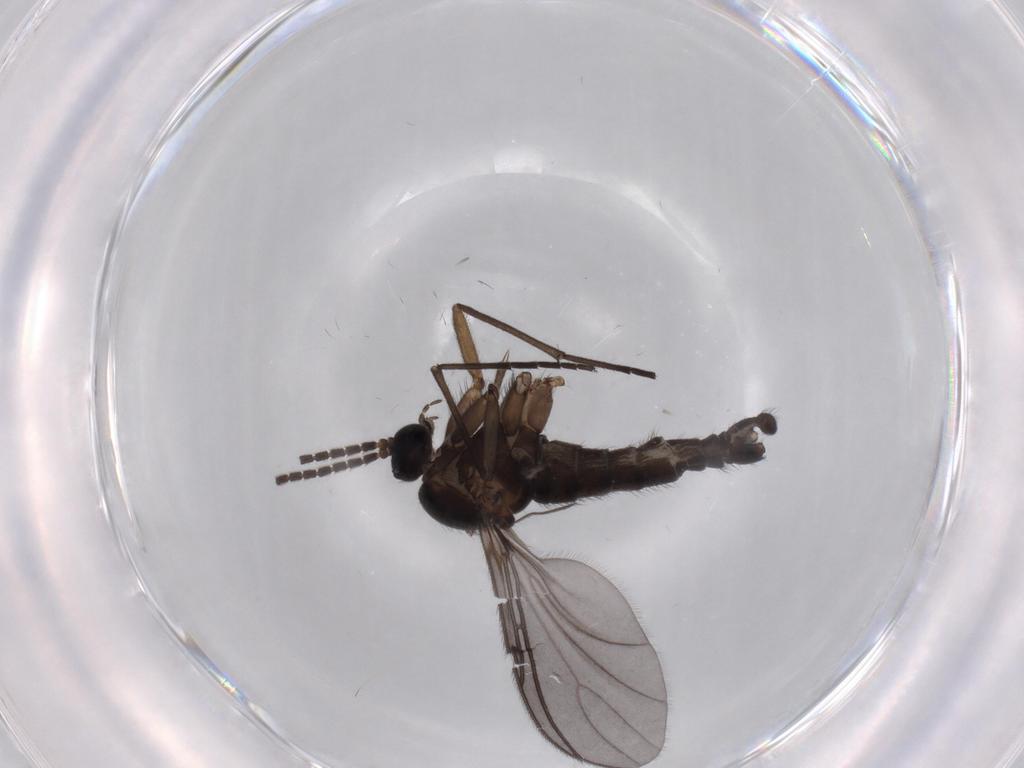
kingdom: Animalia
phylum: Arthropoda
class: Insecta
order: Diptera
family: Sciaridae
